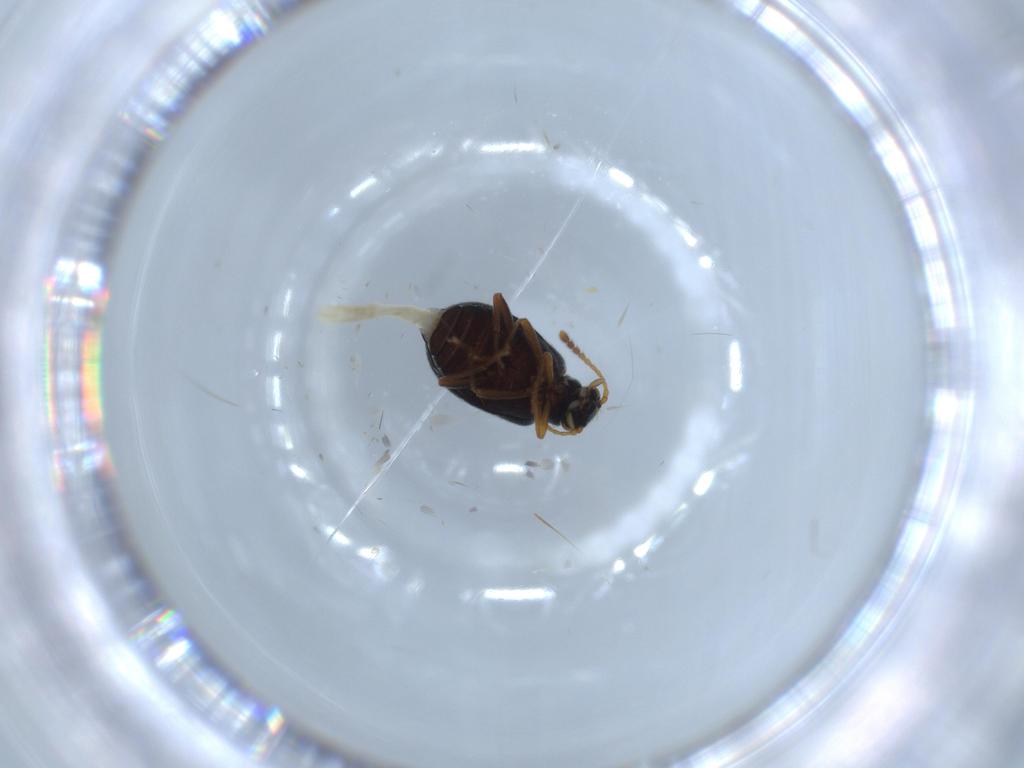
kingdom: Animalia
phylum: Arthropoda
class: Insecta
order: Coleoptera
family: Aderidae
